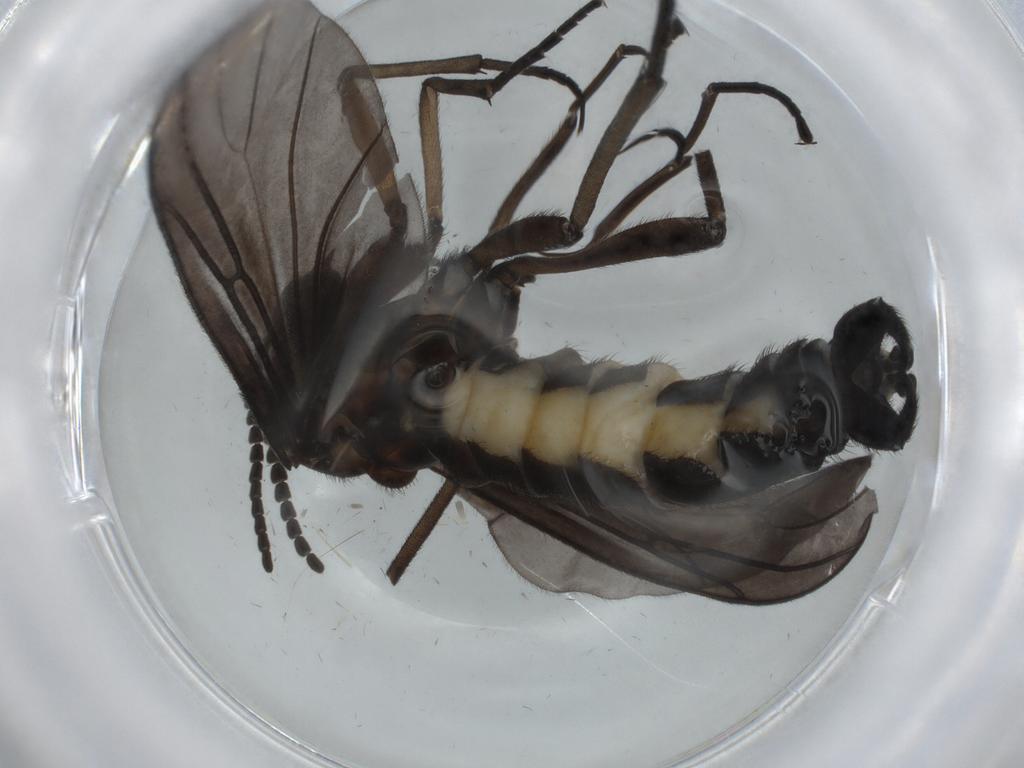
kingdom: Animalia
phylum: Arthropoda
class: Insecta
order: Diptera
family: Sciaridae
